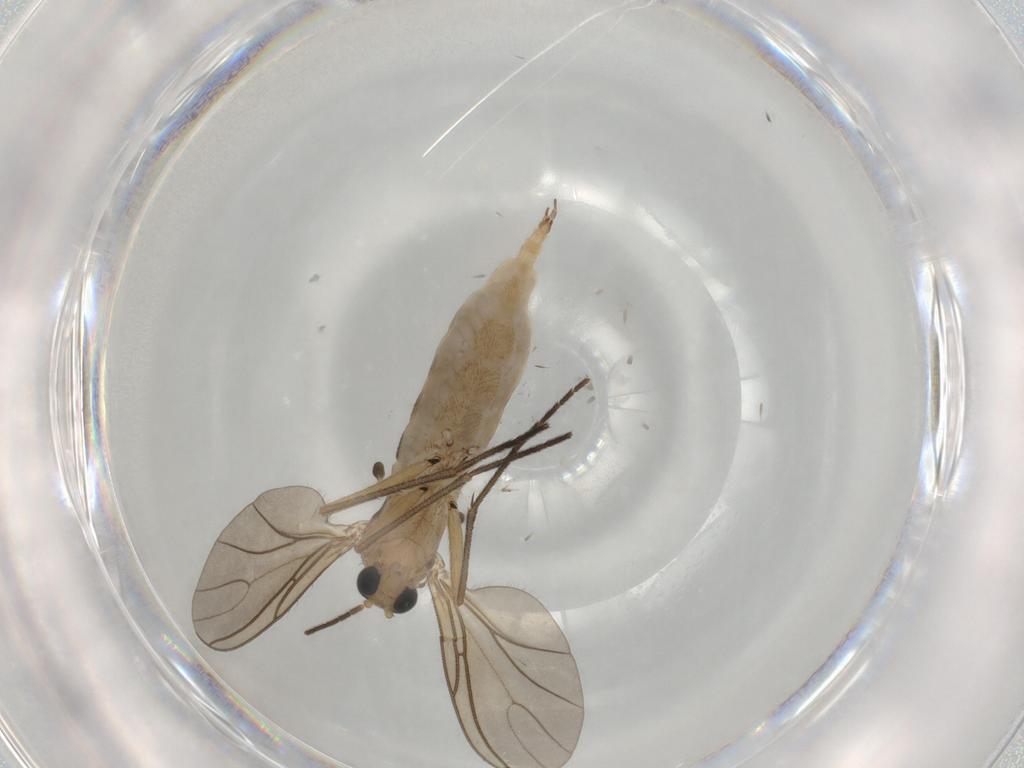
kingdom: Animalia
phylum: Arthropoda
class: Insecta
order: Diptera
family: Sciaridae
